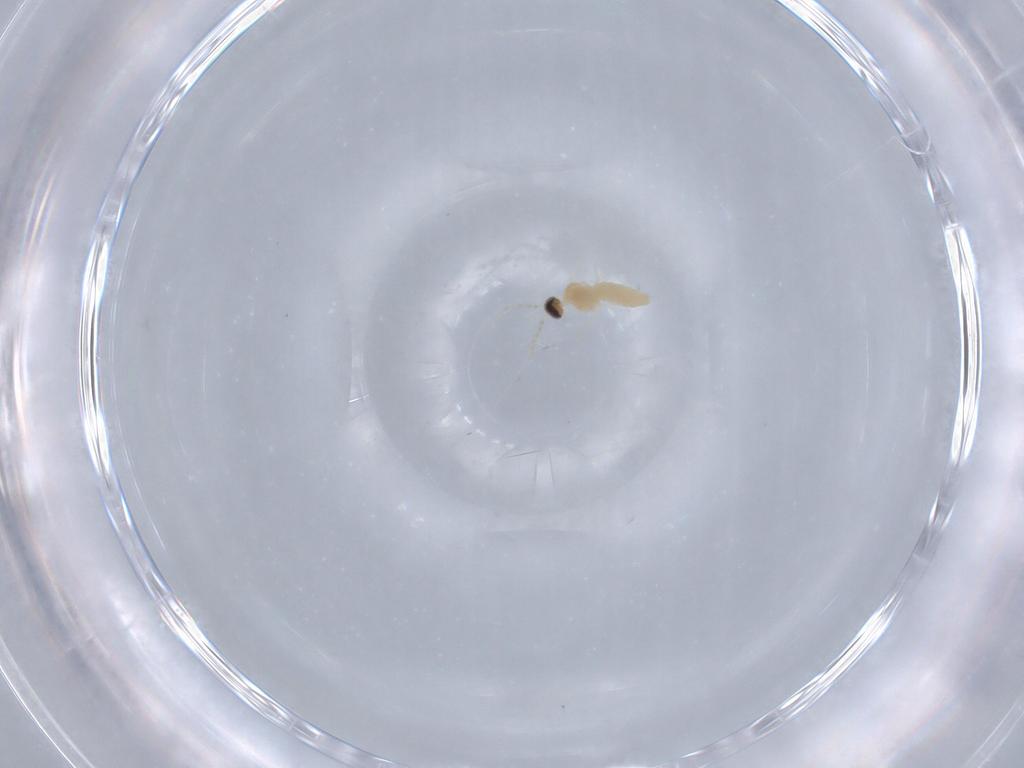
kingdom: Animalia
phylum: Arthropoda
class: Insecta
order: Diptera
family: Cecidomyiidae
